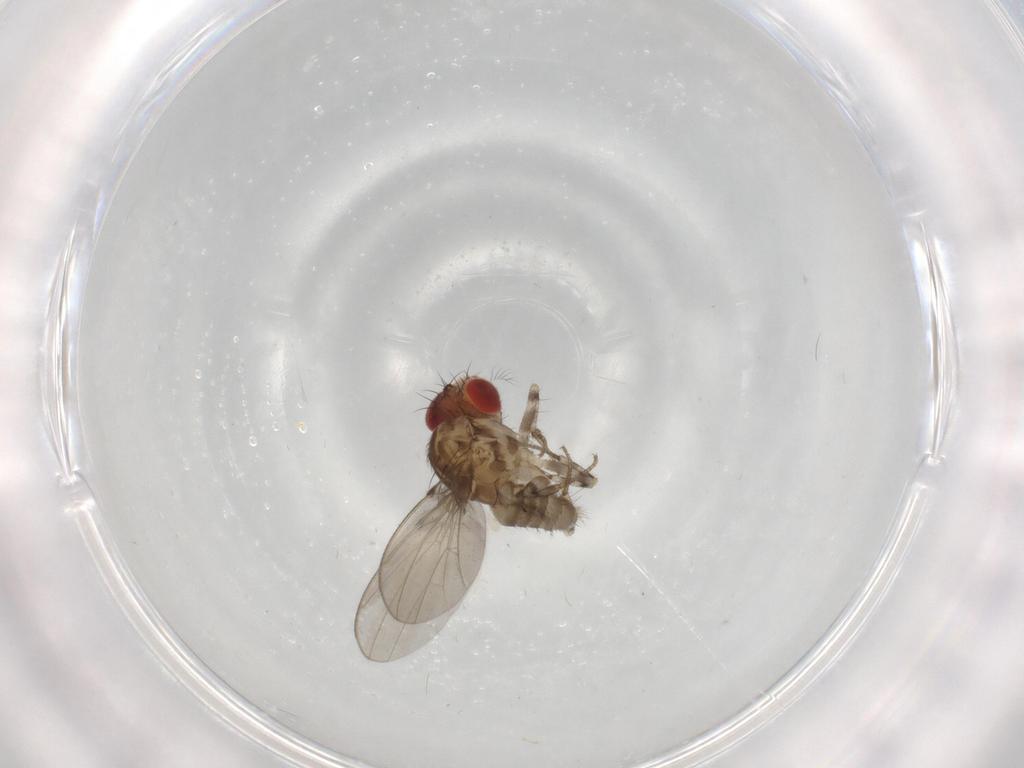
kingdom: Animalia
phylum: Arthropoda
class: Insecta
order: Diptera
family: Drosophilidae
